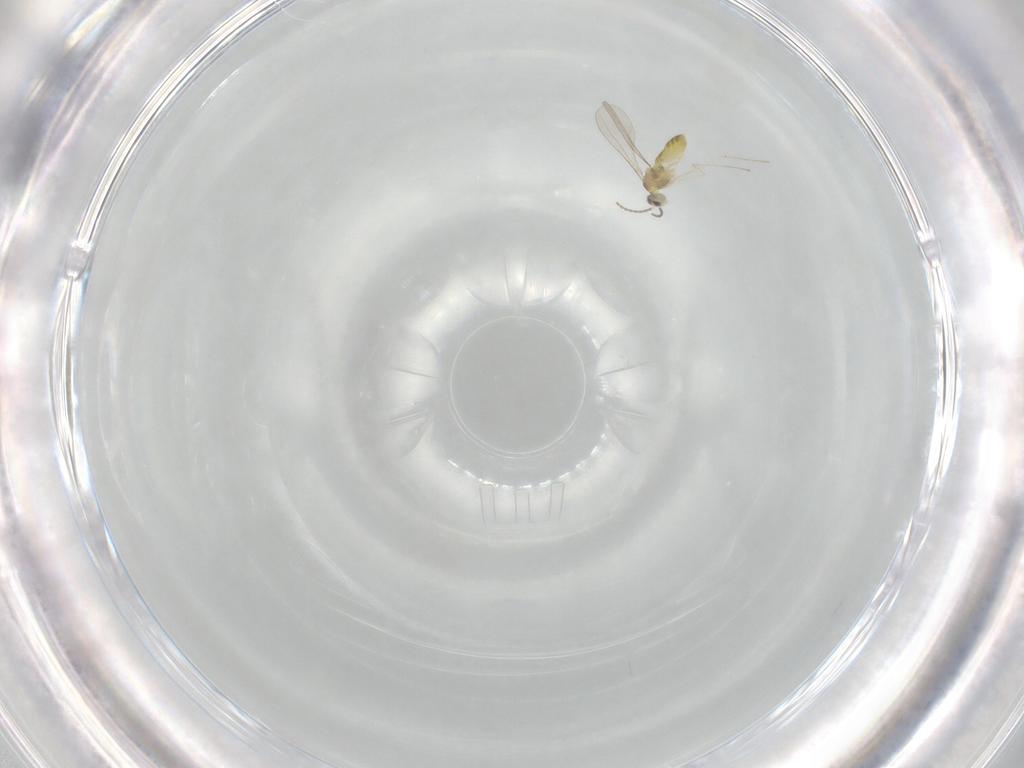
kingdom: Animalia
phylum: Arthropoda
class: Insecta
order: Diptera
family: Cecidomyiidae
